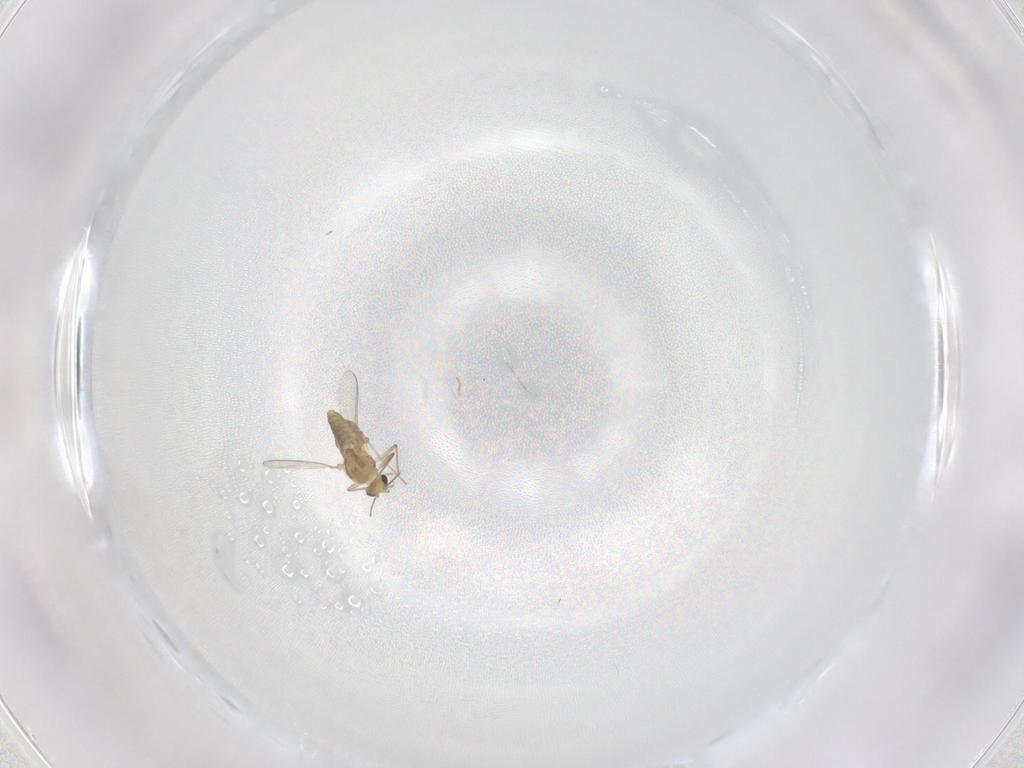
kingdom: Animalia
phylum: Arthropoda
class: Insecta
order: Diptera
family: Chironomidae
